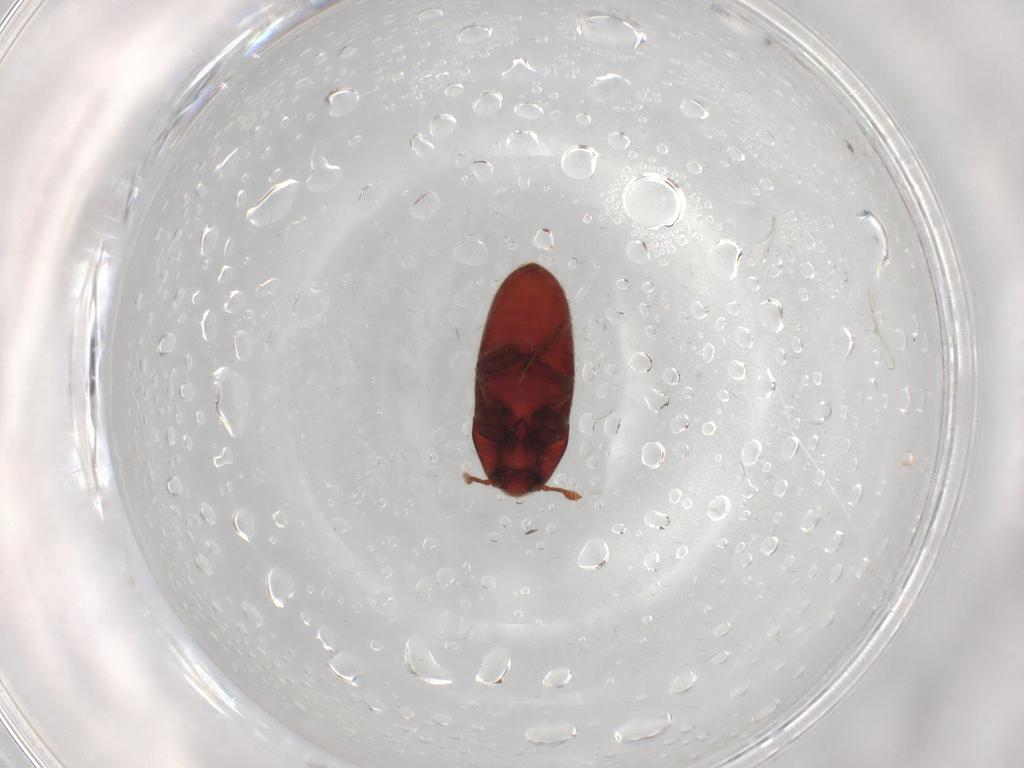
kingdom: Animalia
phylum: Arthropoda
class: Insecta
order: Coleoptera
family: Throscidae
